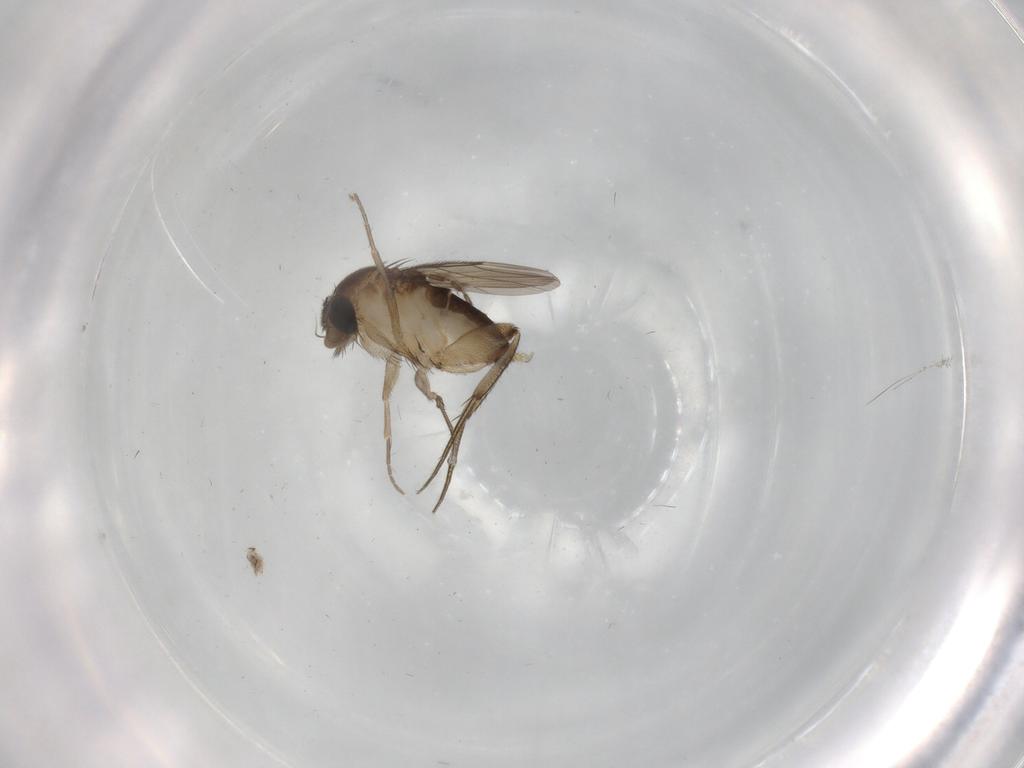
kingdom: Animalia
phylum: Arthropoda
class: Insecta
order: Diptera
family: Phoridae
